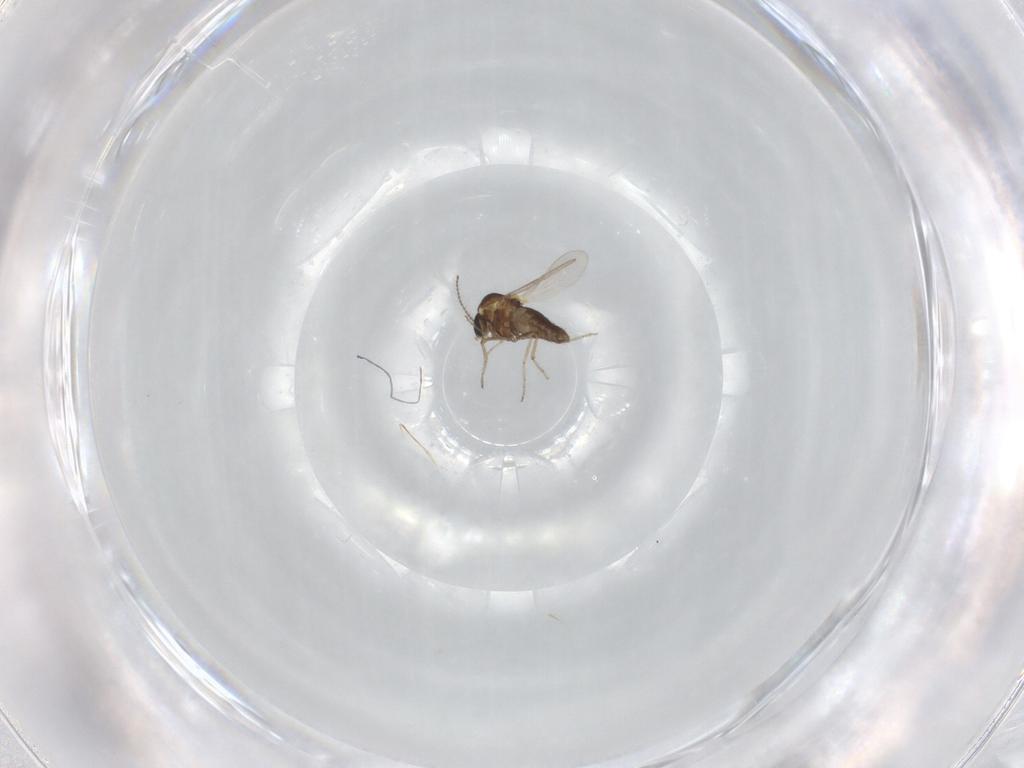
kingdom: Animalia
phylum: Arthropoda
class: Insecta
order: Diptera
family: Ceratopogonidae
